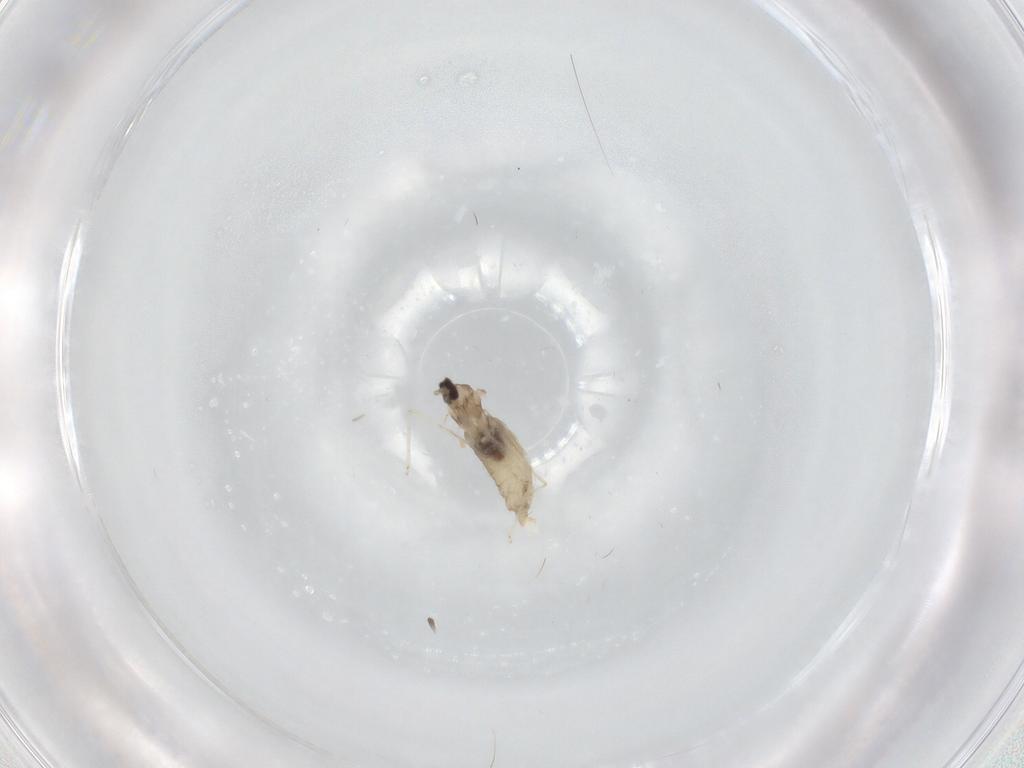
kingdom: Animalia
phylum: Arthropoda
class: Insecta
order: Diptera
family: Cecidomyiidae
